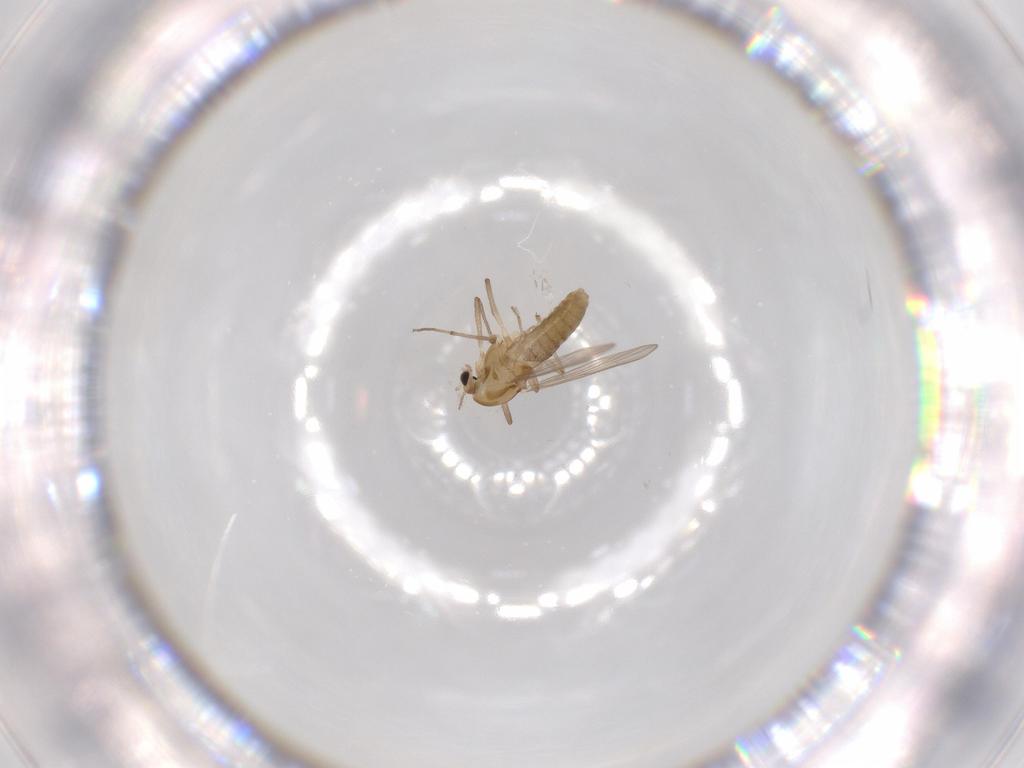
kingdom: Animalia
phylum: Arthropoda
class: Insecta
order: Diptera
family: Chironomidae
